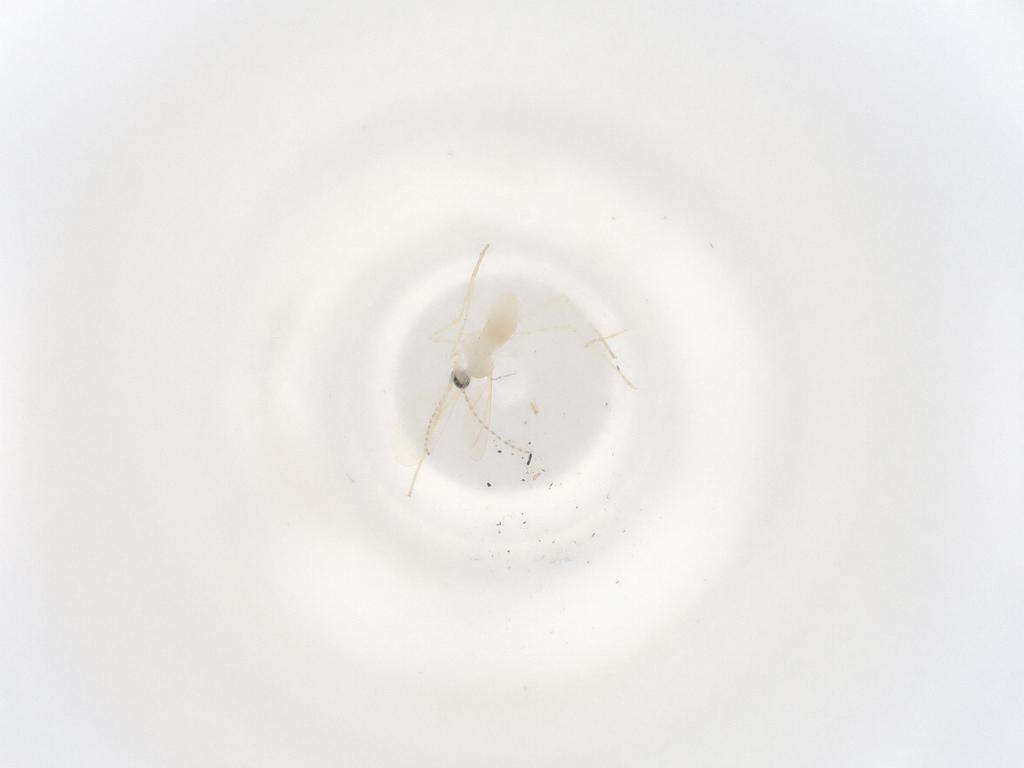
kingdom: Animalia
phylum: Arthropoda
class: Insecta
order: Diptera
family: Cecidomyiidae
